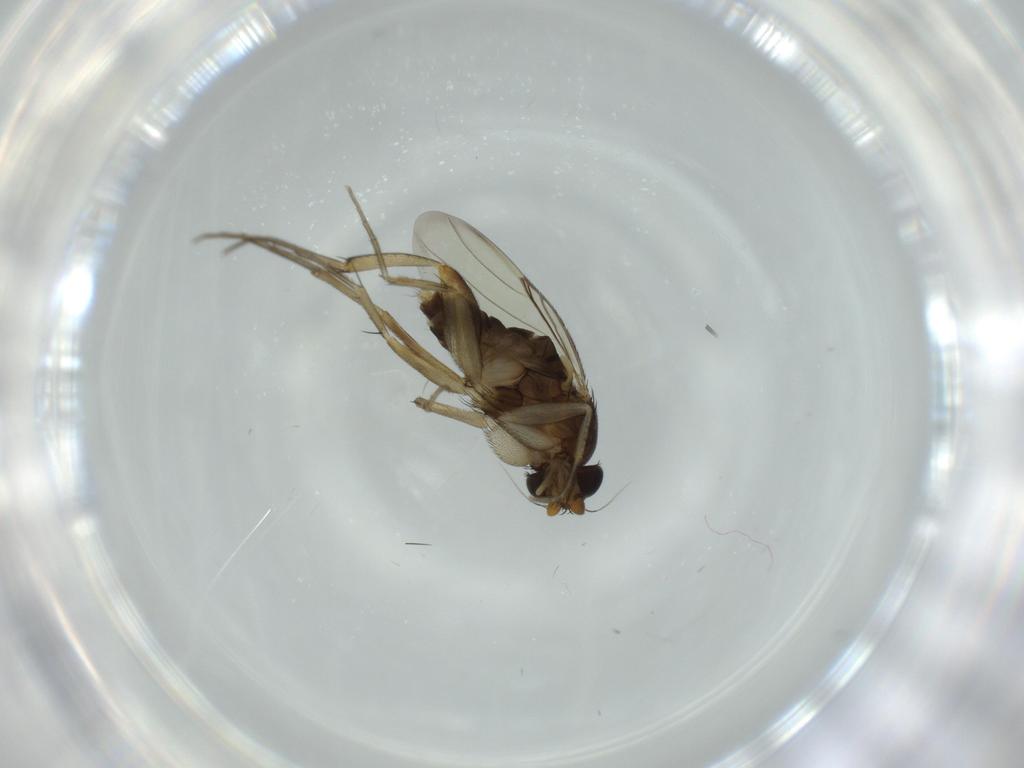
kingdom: Animalia
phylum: Arthropoda
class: Insecta
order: Diptera
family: Phoridae
